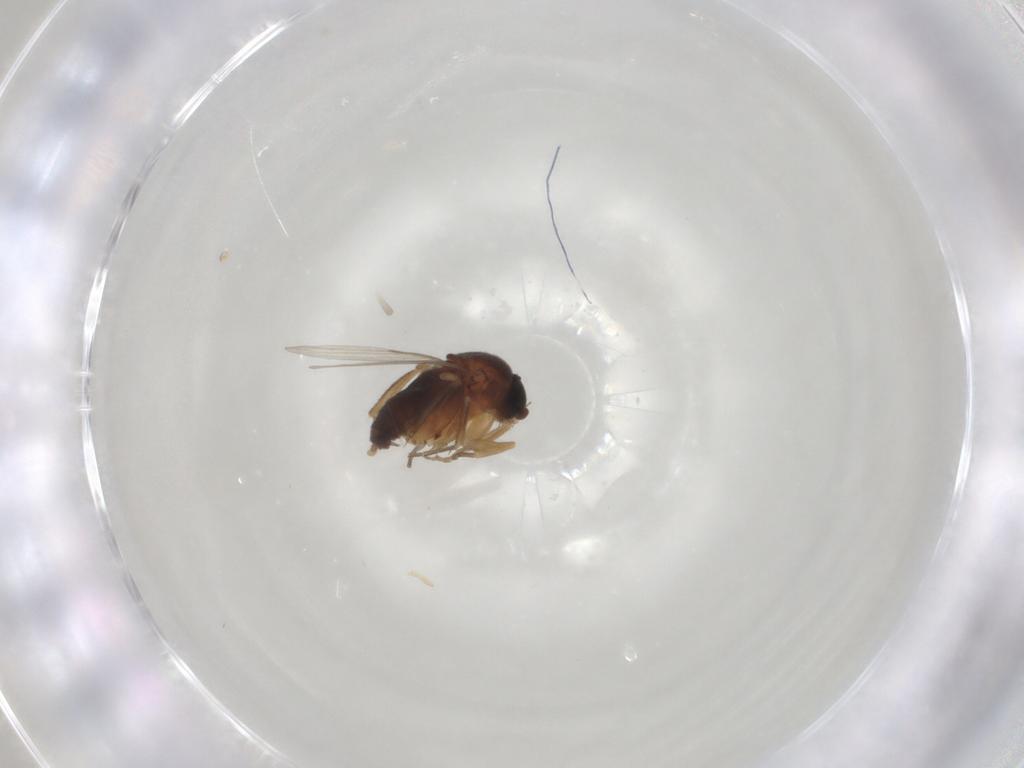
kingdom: Animalia
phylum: Arthropoda
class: Insecta
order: Diptera
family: Phoridae
